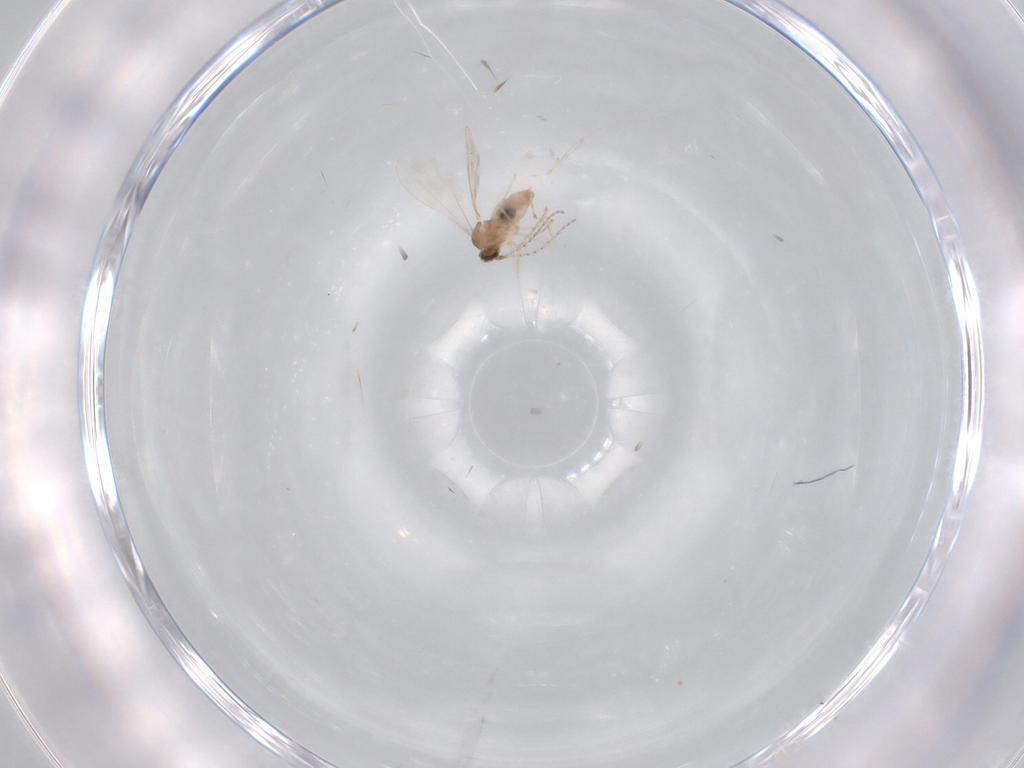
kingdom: Animalia
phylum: Arthropoda
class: Insecta
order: Diptera
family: Cecidomyiidae
